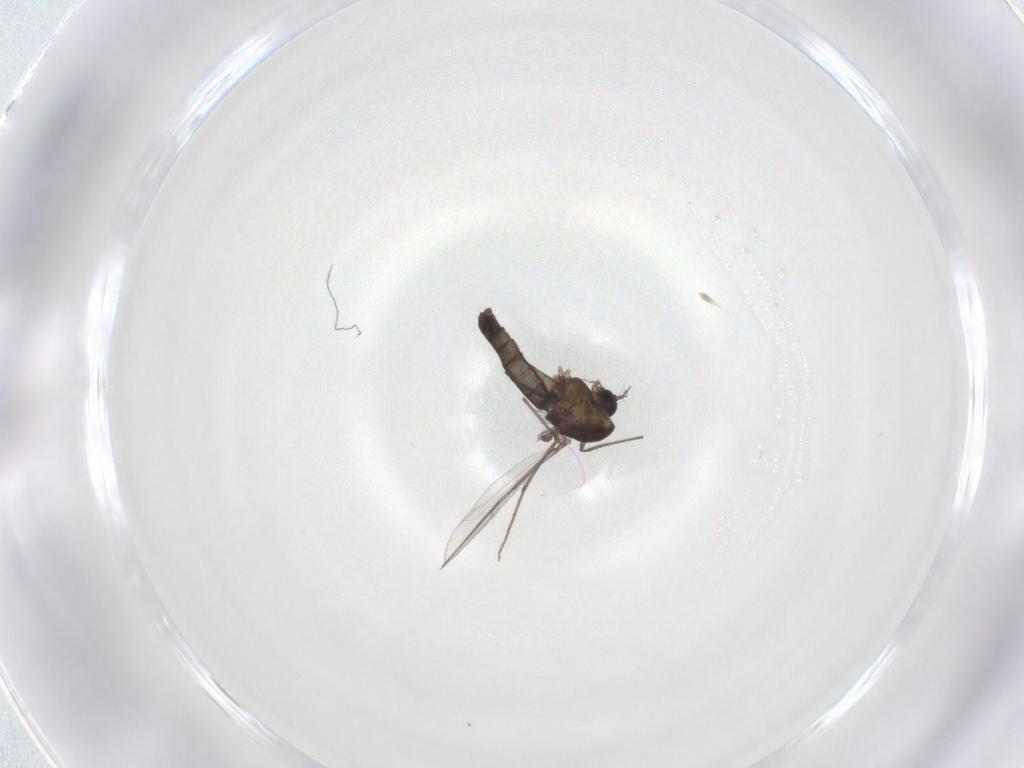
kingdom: Animalia
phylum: Arthropoda
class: Insecta
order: Diptera
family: Chironomidae
